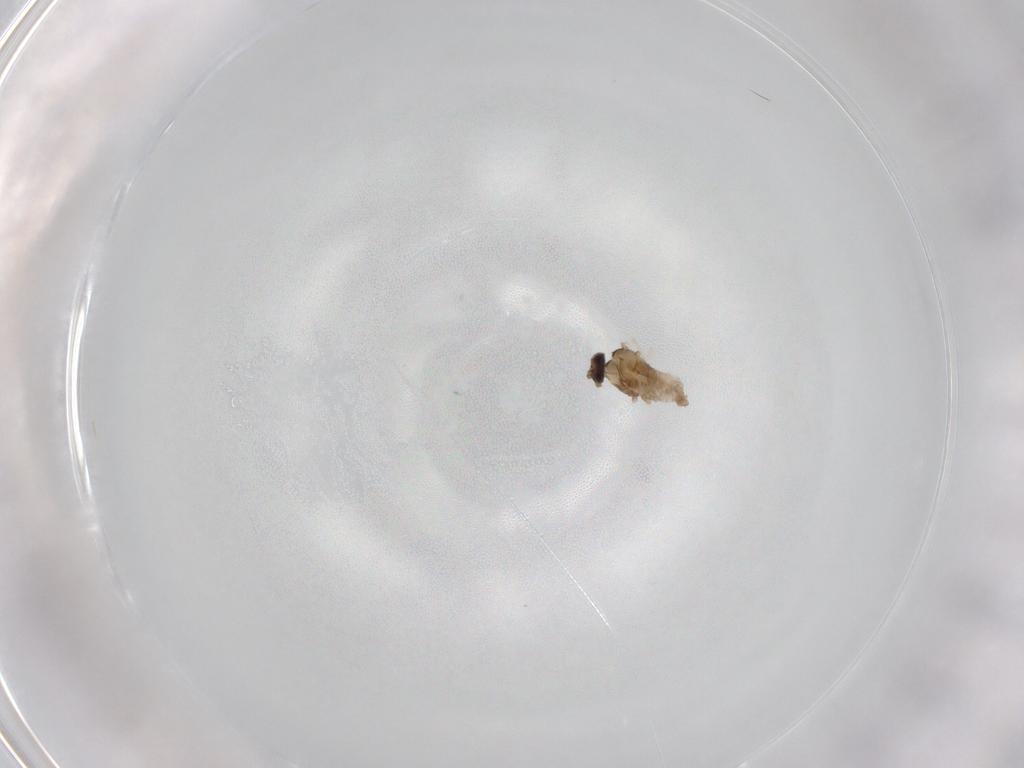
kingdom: Animalia
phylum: Arthropoda
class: Insecta
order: Diptera
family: Cecidomyiidae
